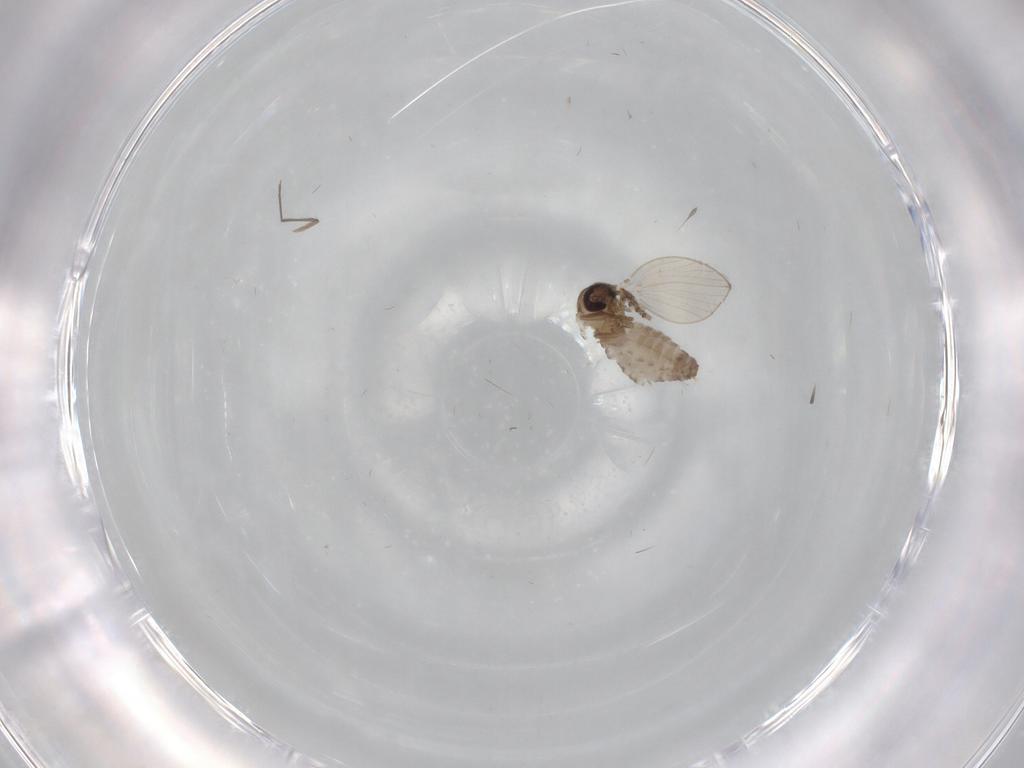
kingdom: Animalia
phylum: Arthropoda
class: Insecta
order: Diptera
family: Psychodidae
